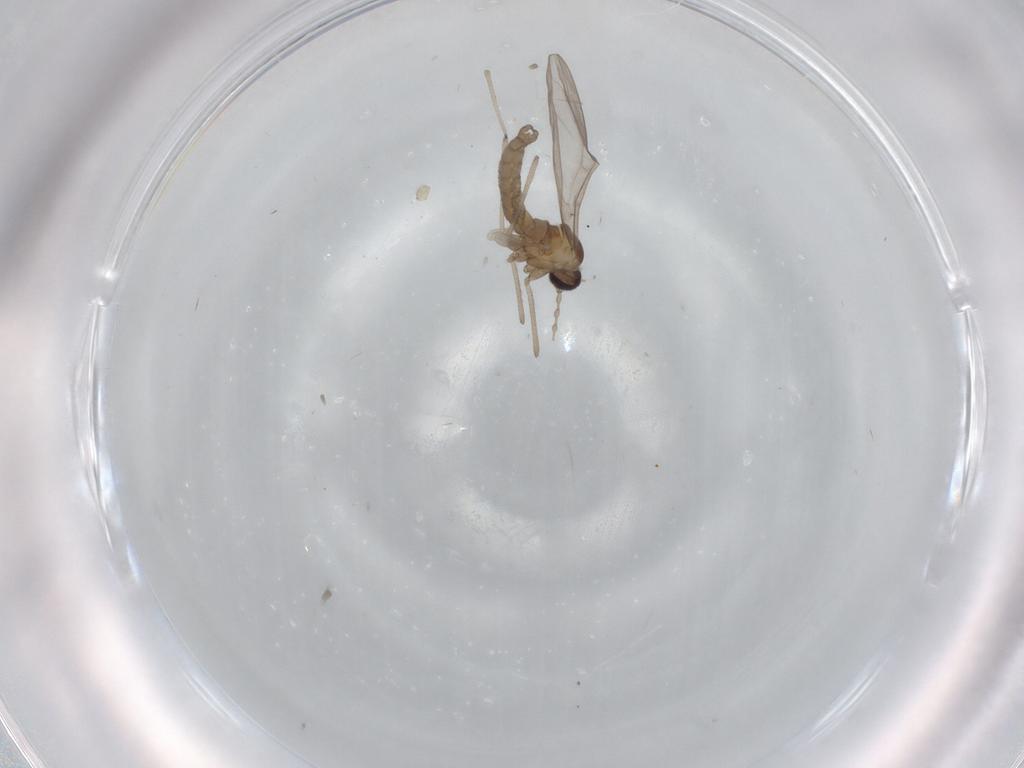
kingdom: Animalia
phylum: Arthropoda
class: Insecta
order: Diptera
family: Cecidomyiidae
